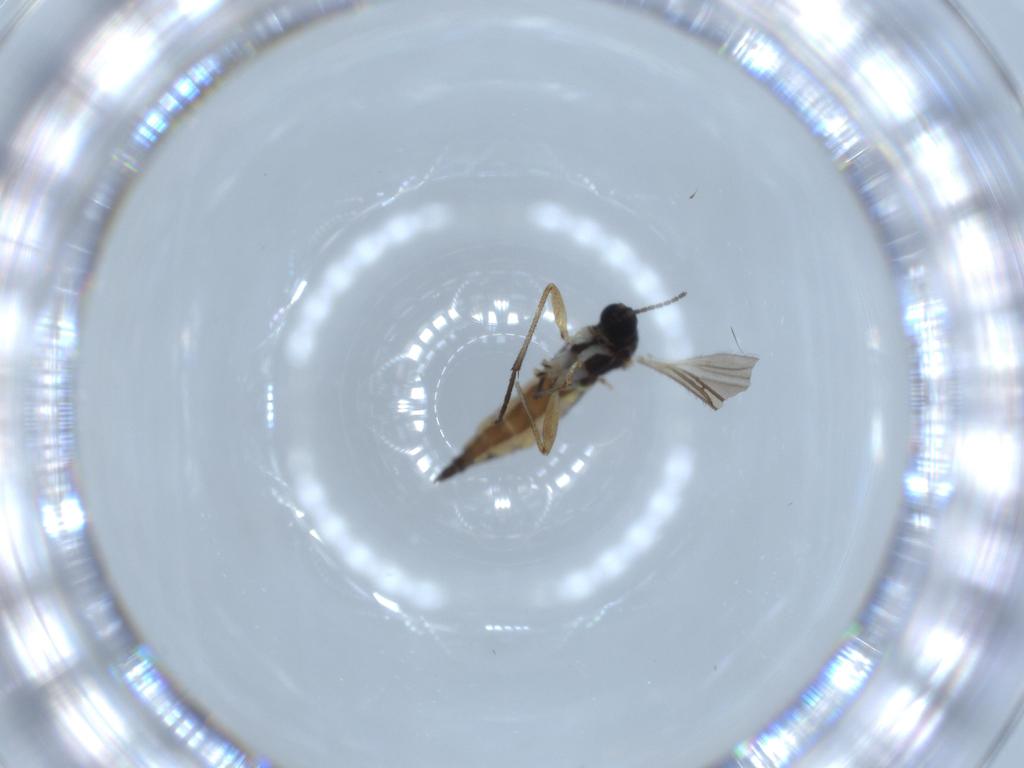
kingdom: Animalia
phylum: Arthropoda
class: Insecta
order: Diptera
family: Sciaridae
